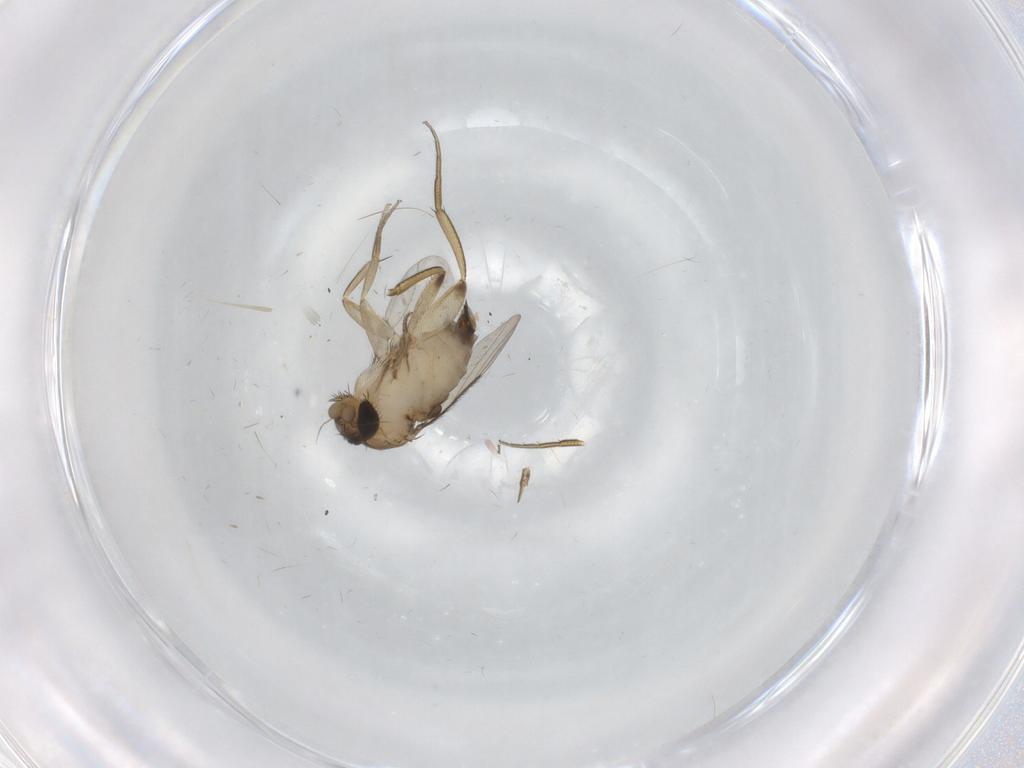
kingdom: Animalia
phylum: Arthropoda
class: Insecta
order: Diptera
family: Phoridae
